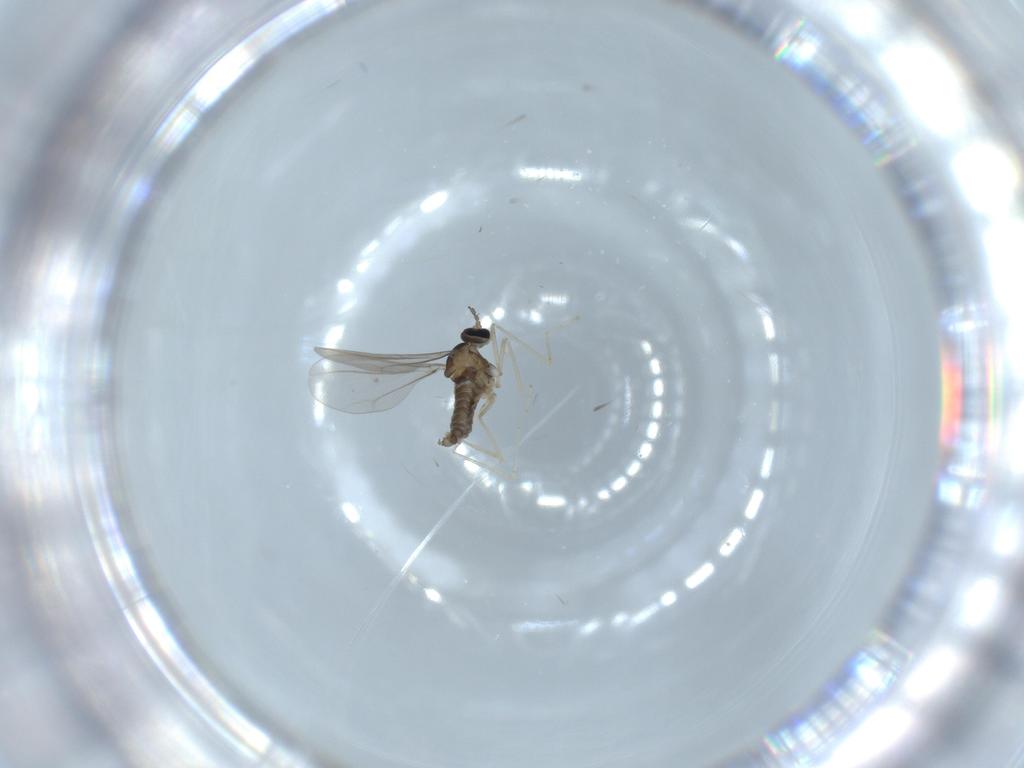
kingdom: Animalia
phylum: Arthropoda
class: Insecta
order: Diptera
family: Cecidomyiidae
